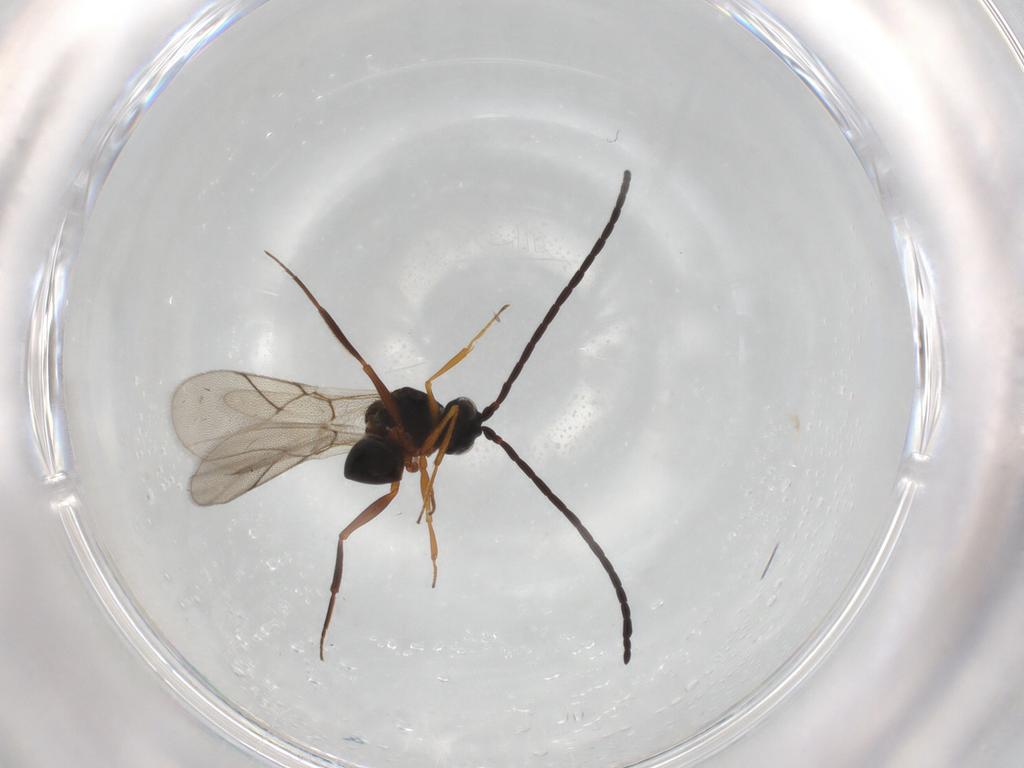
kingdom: Animalia
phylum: Arthropoda
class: Insecta
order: Hymenoptera
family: Figitidae
